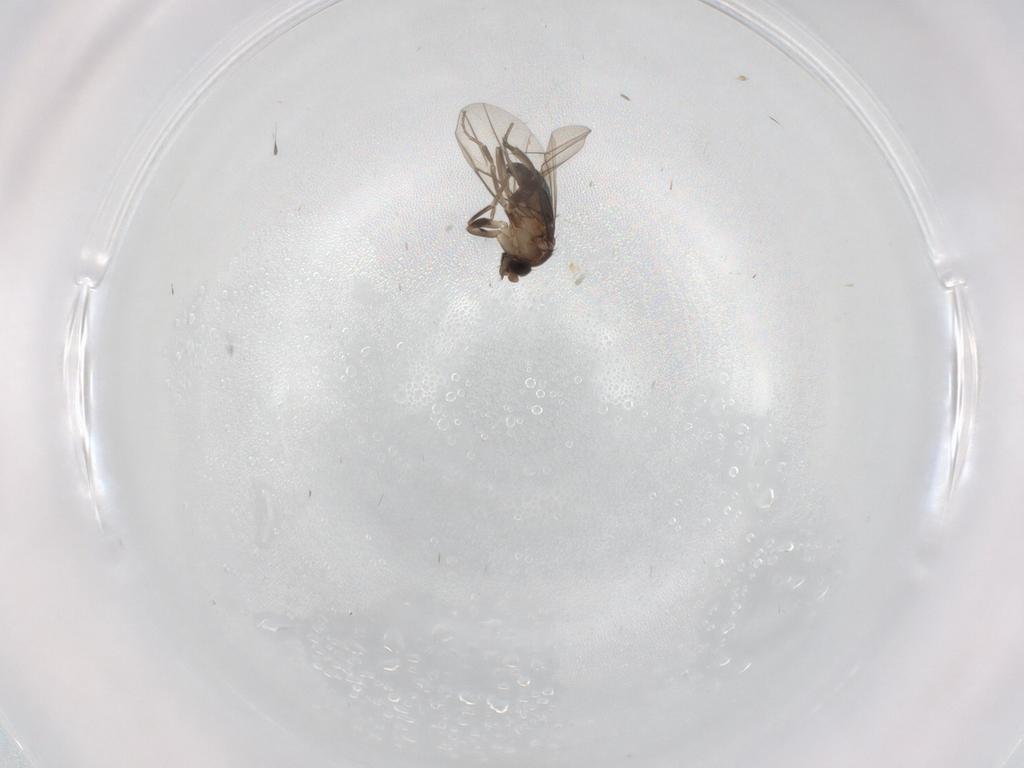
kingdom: Animalia
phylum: Arthropoda
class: Insecta
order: Diptera
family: Phoridae
